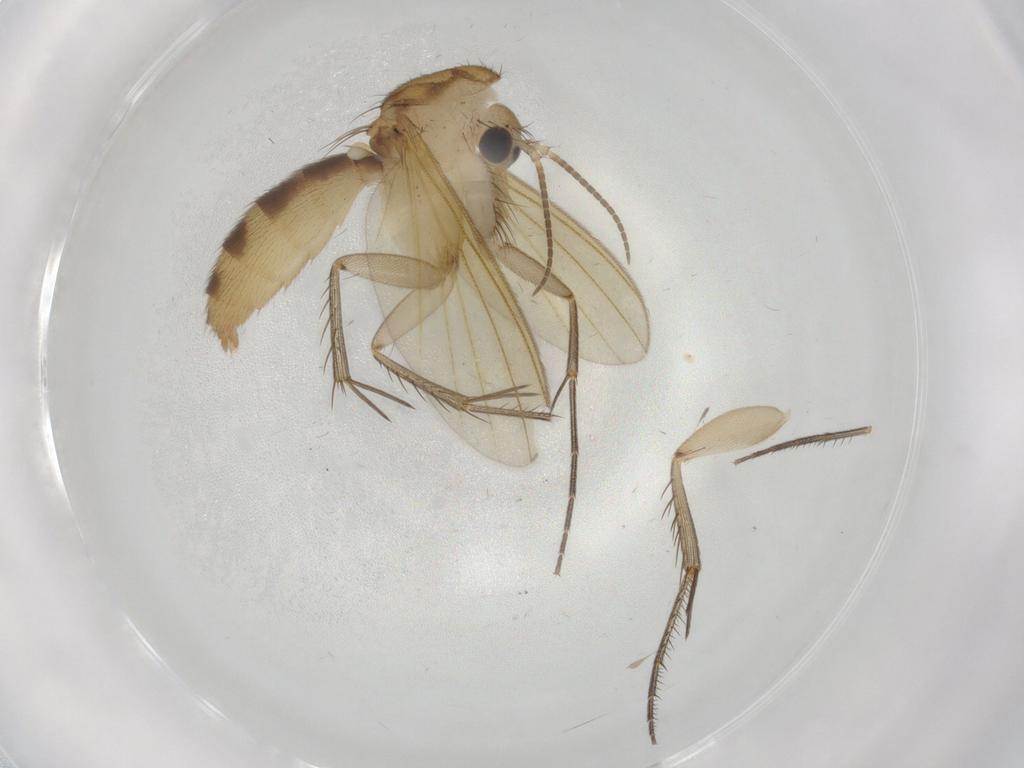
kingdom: Animalia
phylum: Arthropoda
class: Insecta
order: Diptera
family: Mycetophilidae
